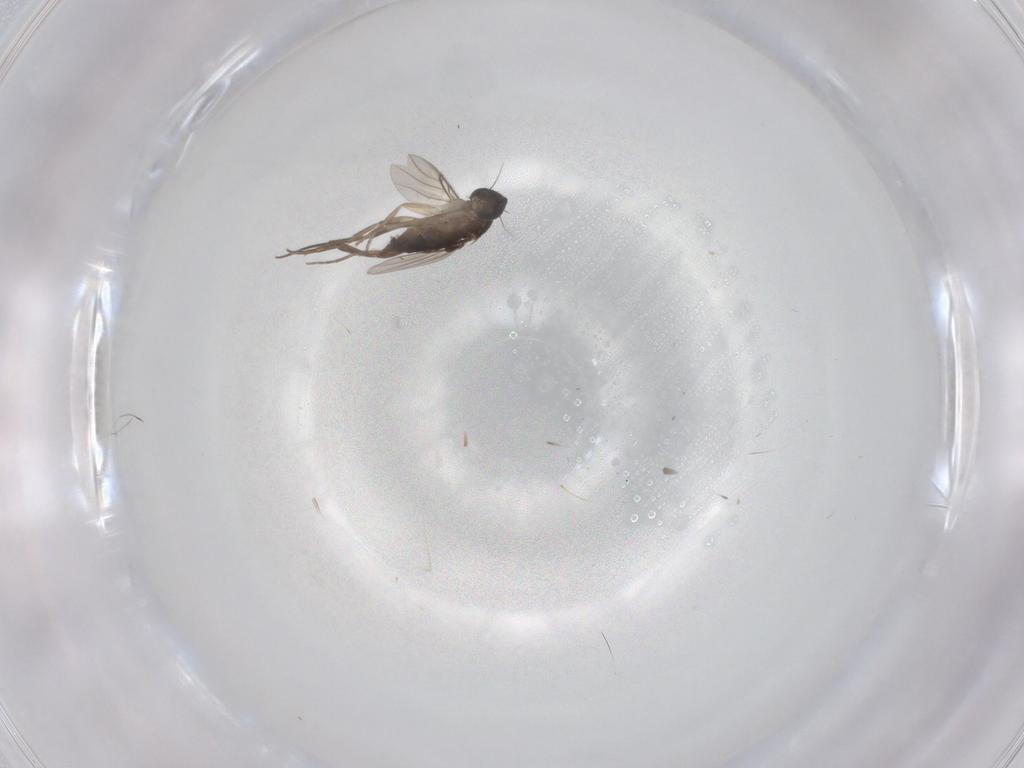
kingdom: Animalia
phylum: Arthropoda
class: Insecta
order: Diptera
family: Phoridae
